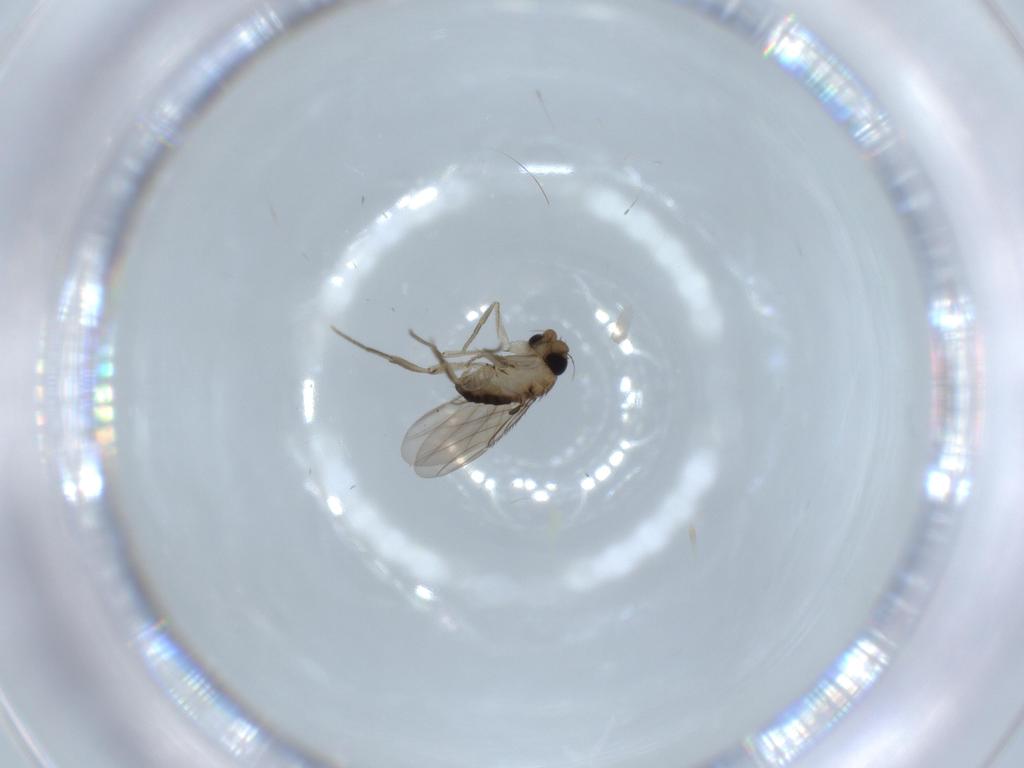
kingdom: Animalia
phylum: Arthropoda
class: Insecta
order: Diptera
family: Phoridae
